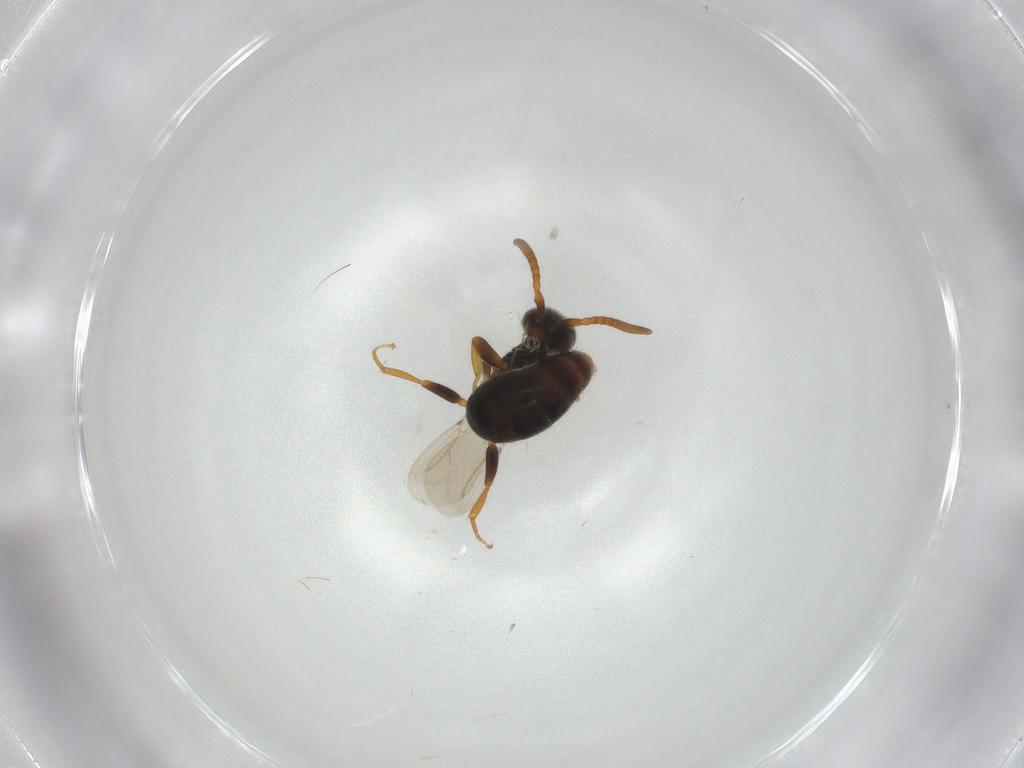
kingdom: Animalia
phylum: Arthropoda
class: Insecta
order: Hymenoptera
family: Bethylidae
